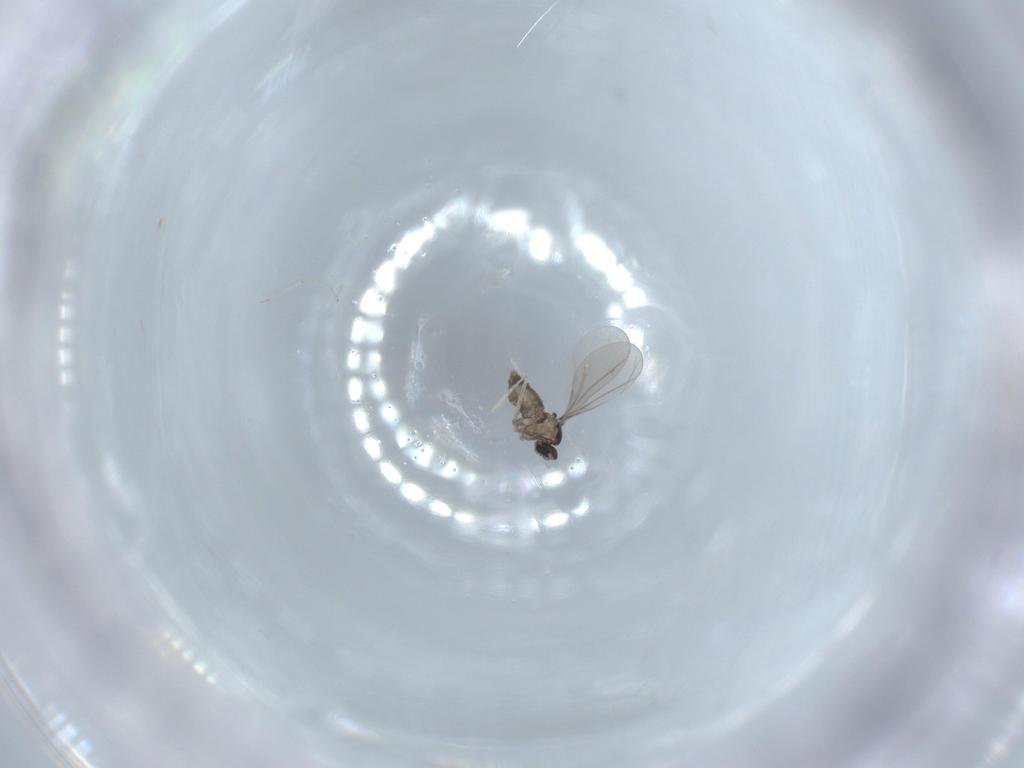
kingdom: Animalia
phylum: Arthropoda
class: Insecta
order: Diptera
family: Cecidomyiidae
